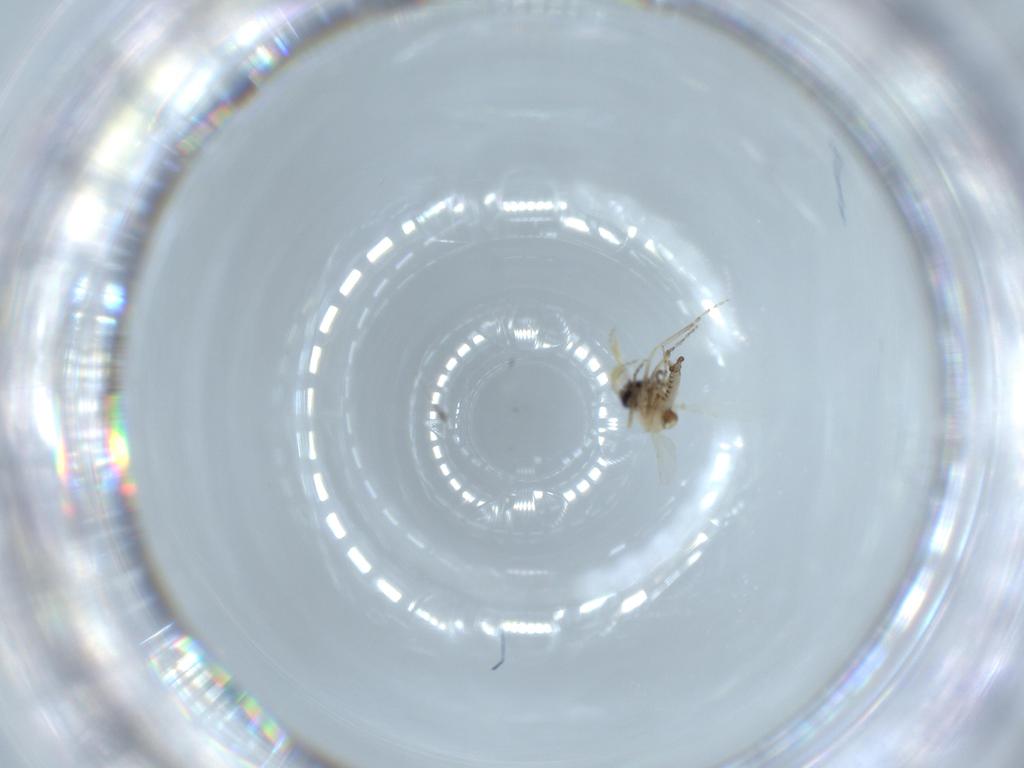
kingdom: Animalia
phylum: Arthropoda
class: Insecta
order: Diptera
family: Ceratopogonidae
